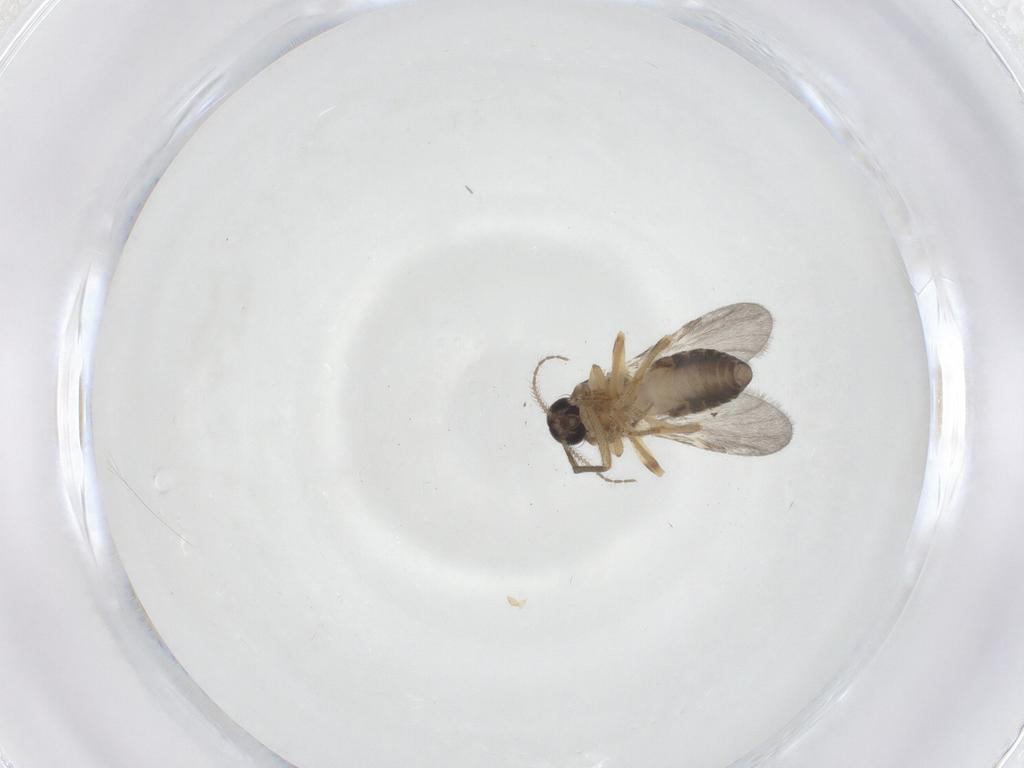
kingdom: Animalia
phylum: Arthropoda
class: Insecta
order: Diptera
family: Ceratopogonidae
